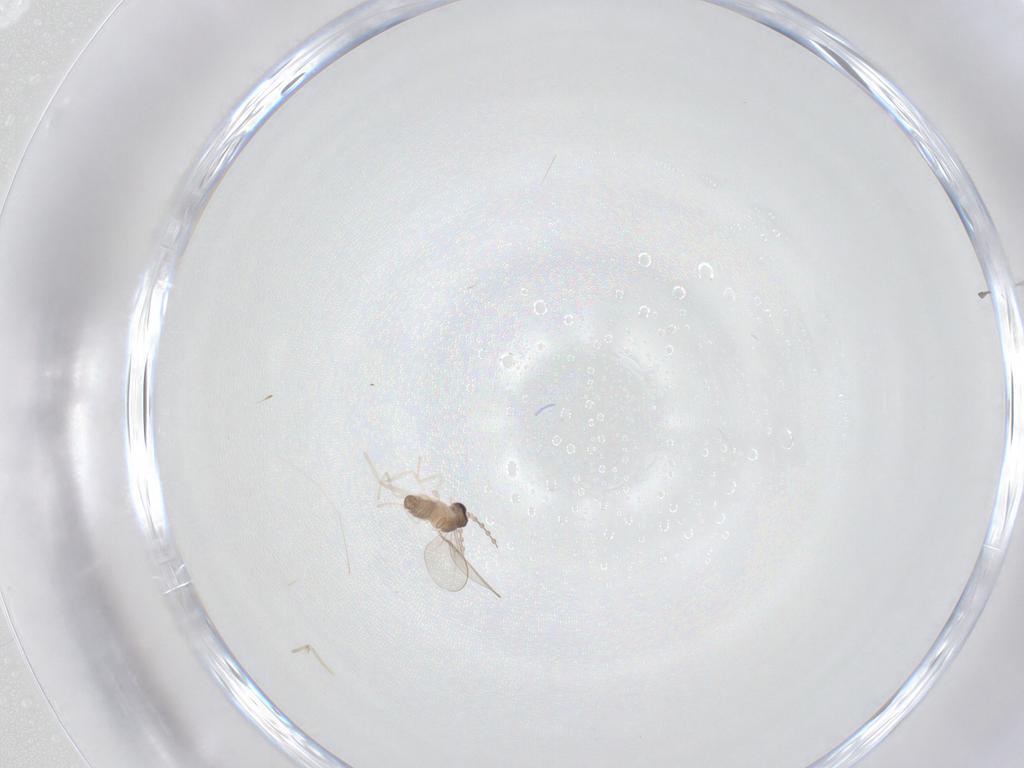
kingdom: Animalia
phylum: Arthropoda
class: Insecta
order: Diptera
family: Cecidomyiidae
